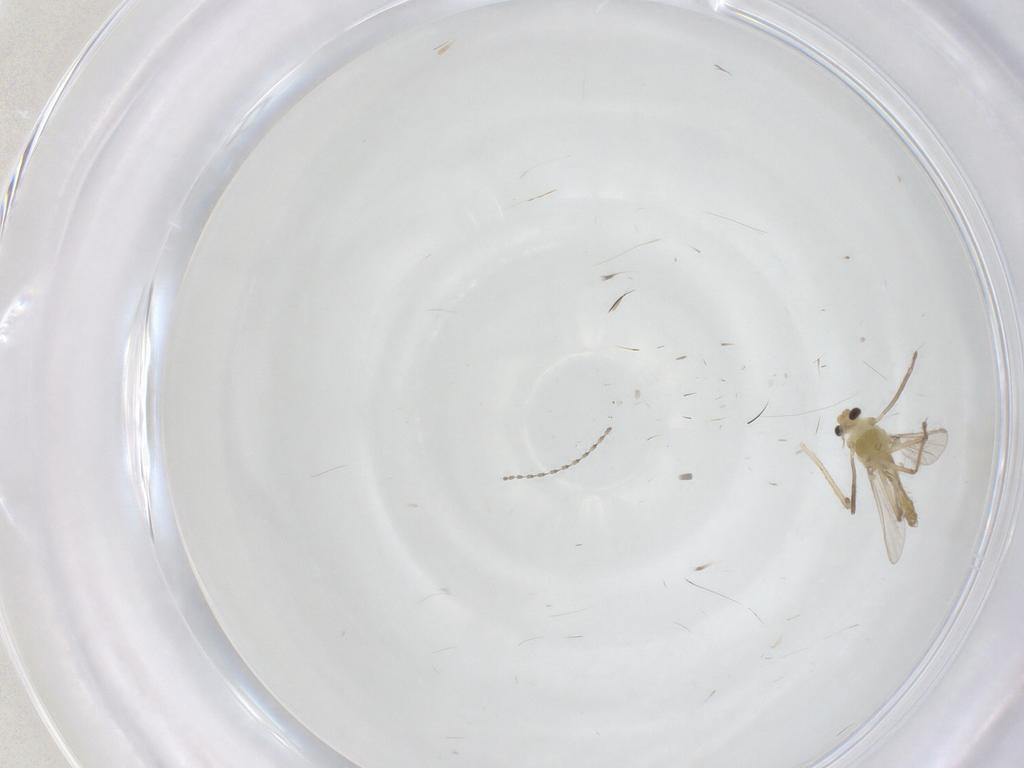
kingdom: Animalia
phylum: Arthropoda
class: Insecta
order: Diptera
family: Chironomidae
